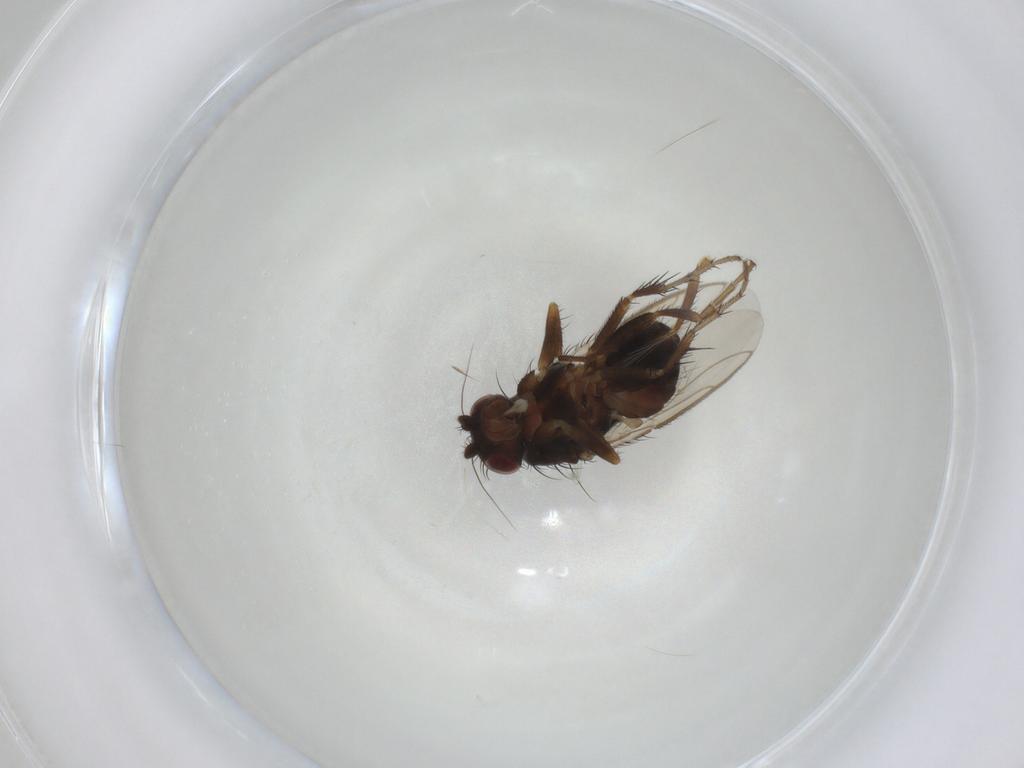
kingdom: Animalia
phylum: Arthropoda
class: Insecta
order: Diptera
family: Sphaeroceridae
